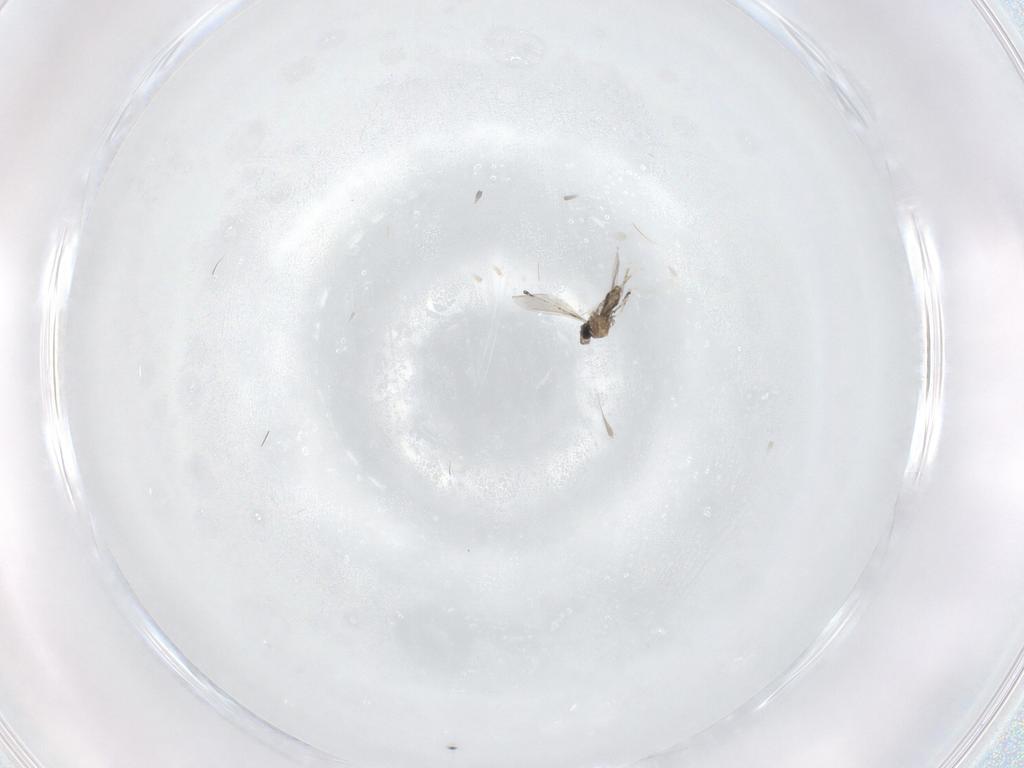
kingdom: Animalia
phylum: Arthropoda
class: Insecta
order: Diptera
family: Cecidomyiidae
